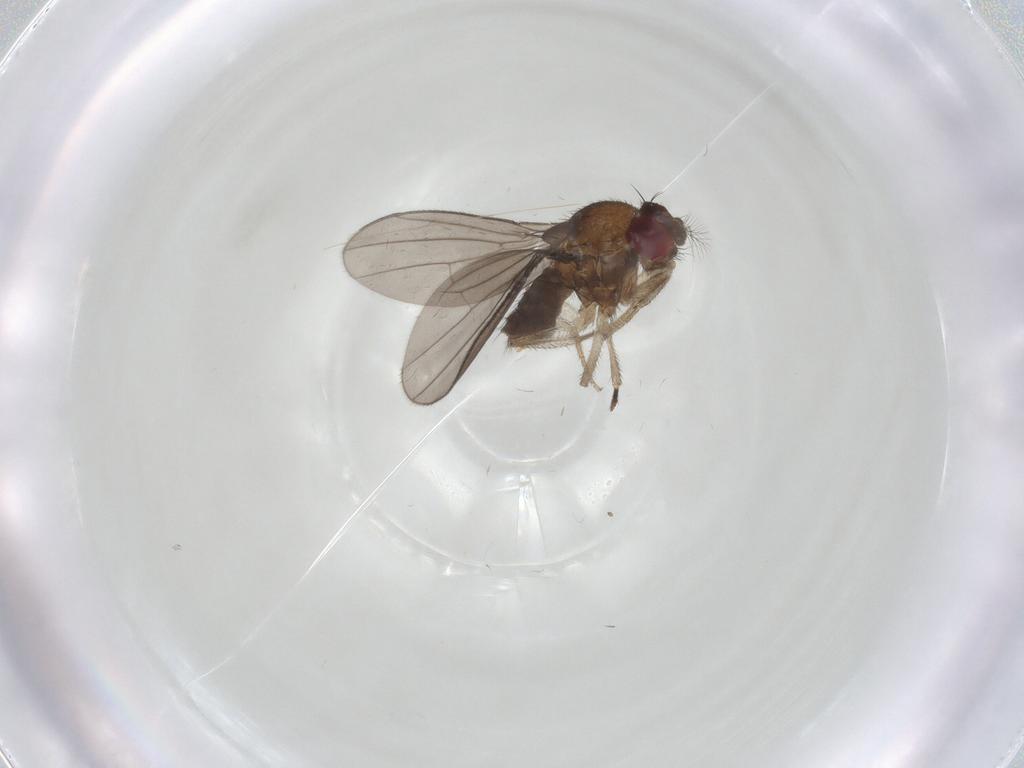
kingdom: Animalia
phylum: Arthropoda
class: Insecta
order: Diptera
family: Drosophilidae
